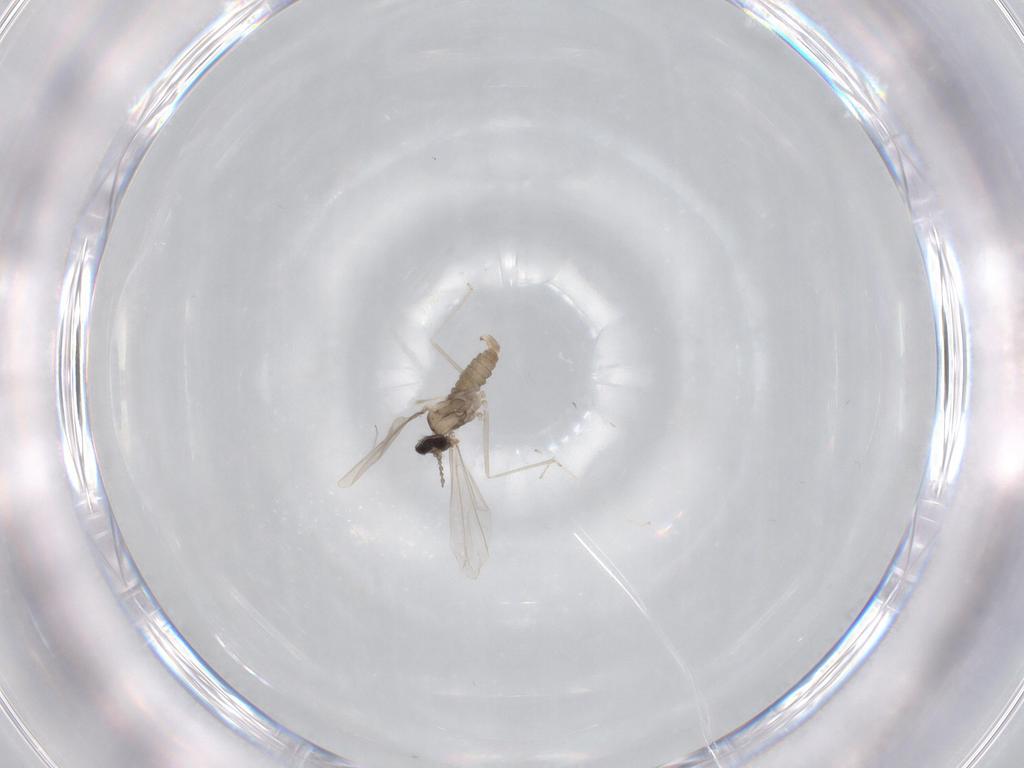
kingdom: Animalia
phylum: Arthropoda
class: Insecta
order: Diptera
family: Cecidomyiidae
